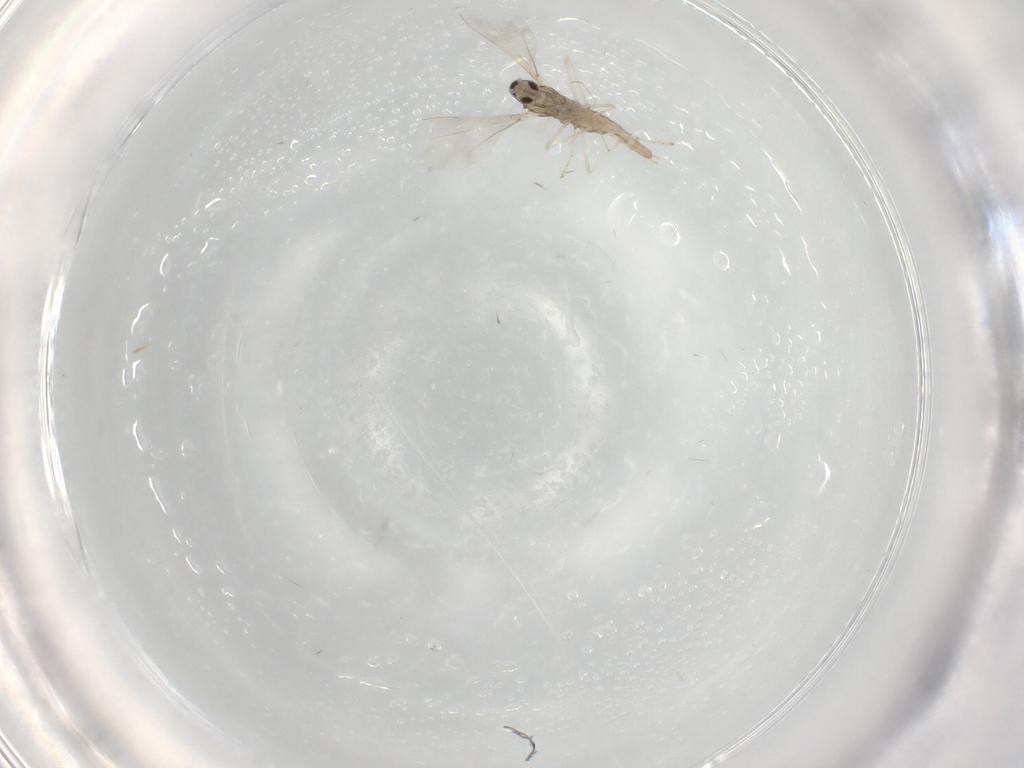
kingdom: Animalia
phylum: Arthropoda
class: Insecta
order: Diptera
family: Cecidomyiidae
